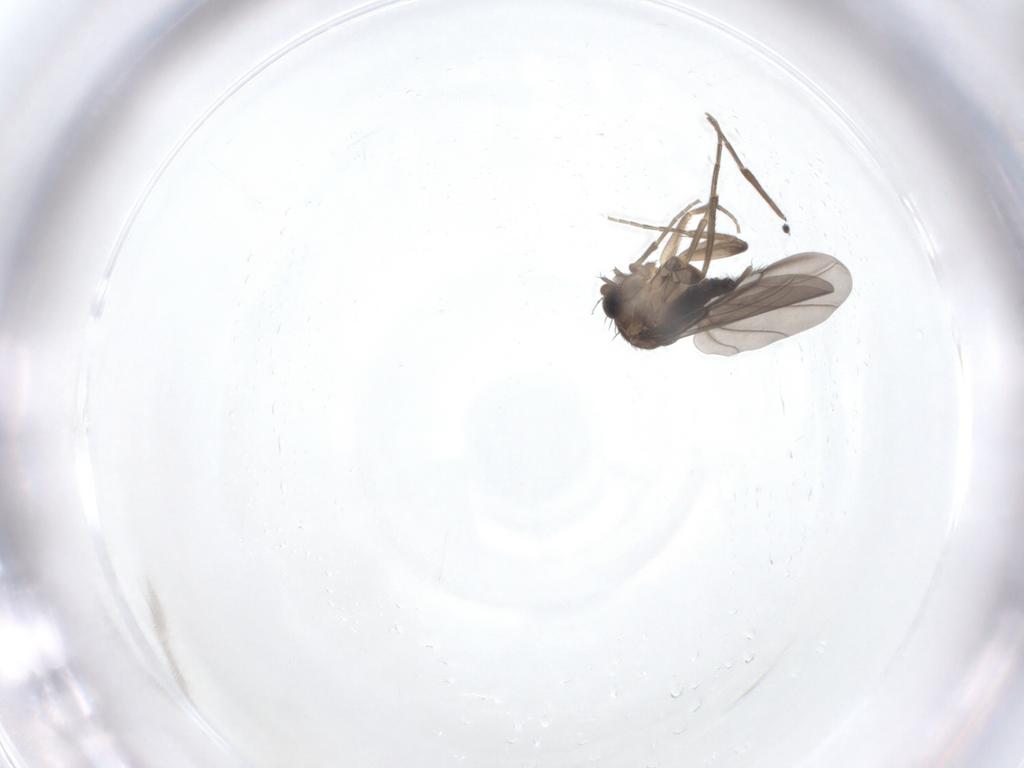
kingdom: Animalia
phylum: Arthropoda
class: Insecta
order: Diptera
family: Phoridae
